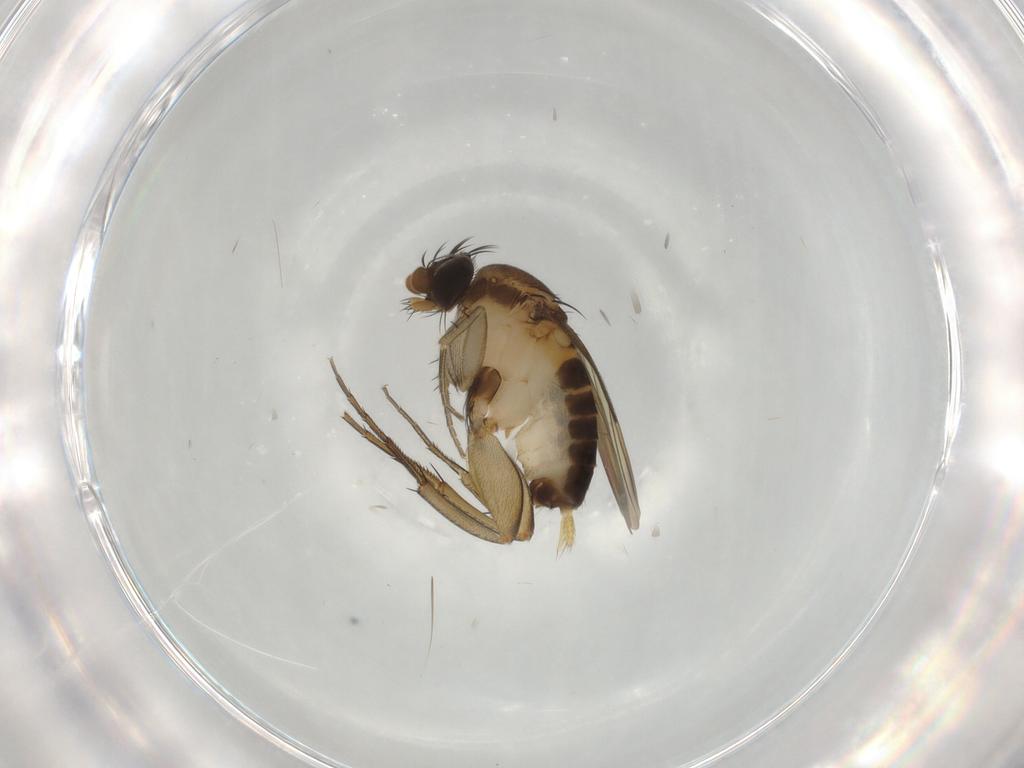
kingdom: Animalia
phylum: Arthropoda
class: Insecta
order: Diptera
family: Phoridae
